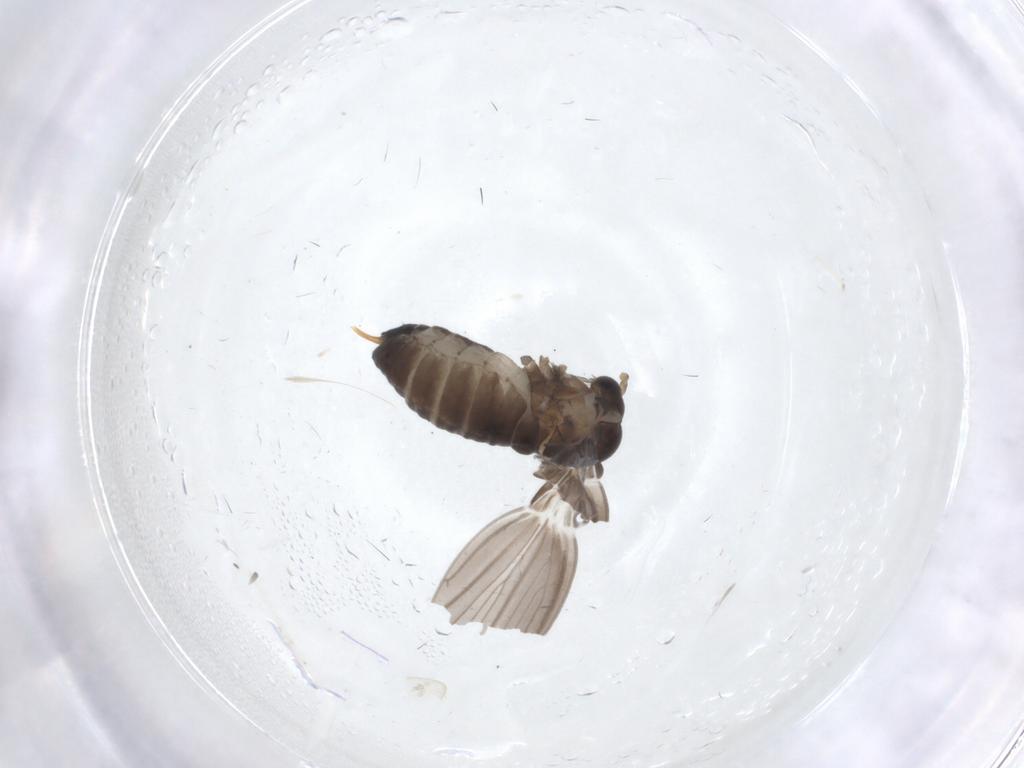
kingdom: Animalia
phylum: Arthropoda
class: Insecta
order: Diptera
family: Psychodidae
